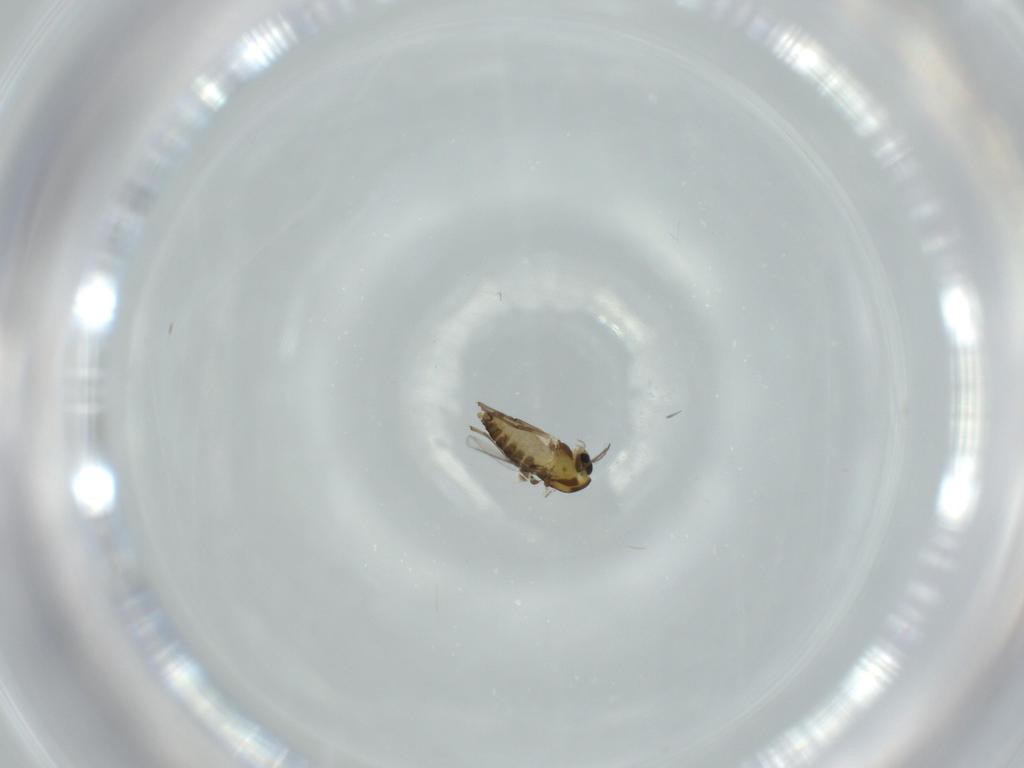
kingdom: Animalia
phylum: Arthropoda
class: Insecta
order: Diptera
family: Chironomidae
